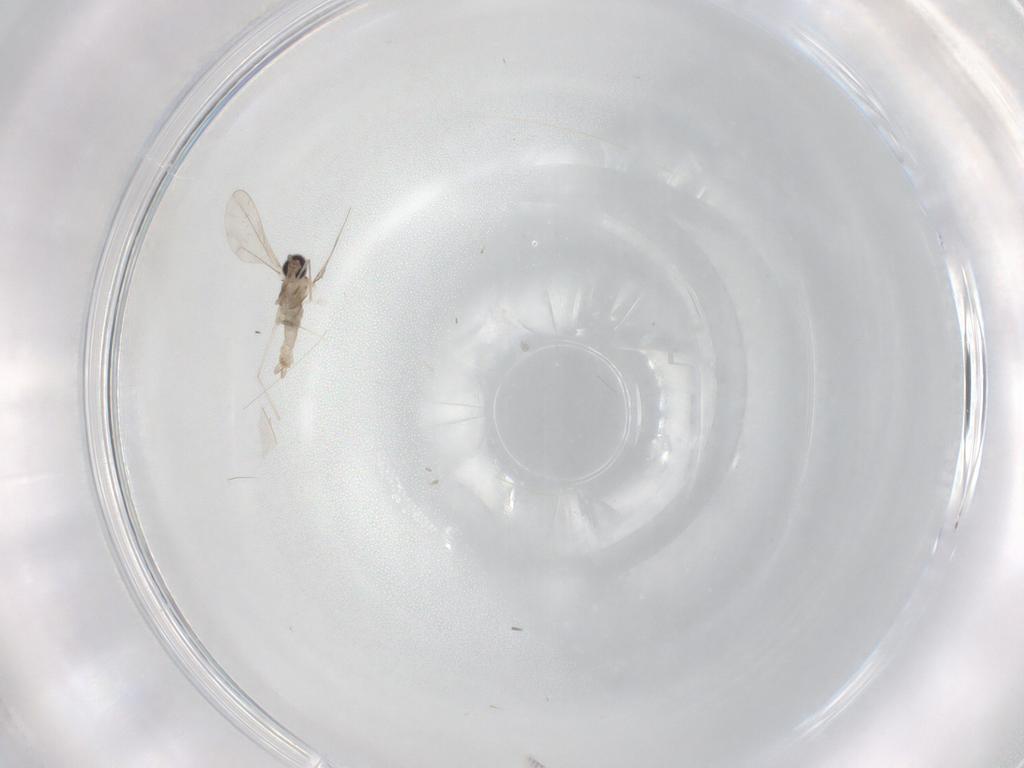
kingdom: Animalia
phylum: Arthropoda
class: Insecta
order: Diptera
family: Cecidomyiidae
